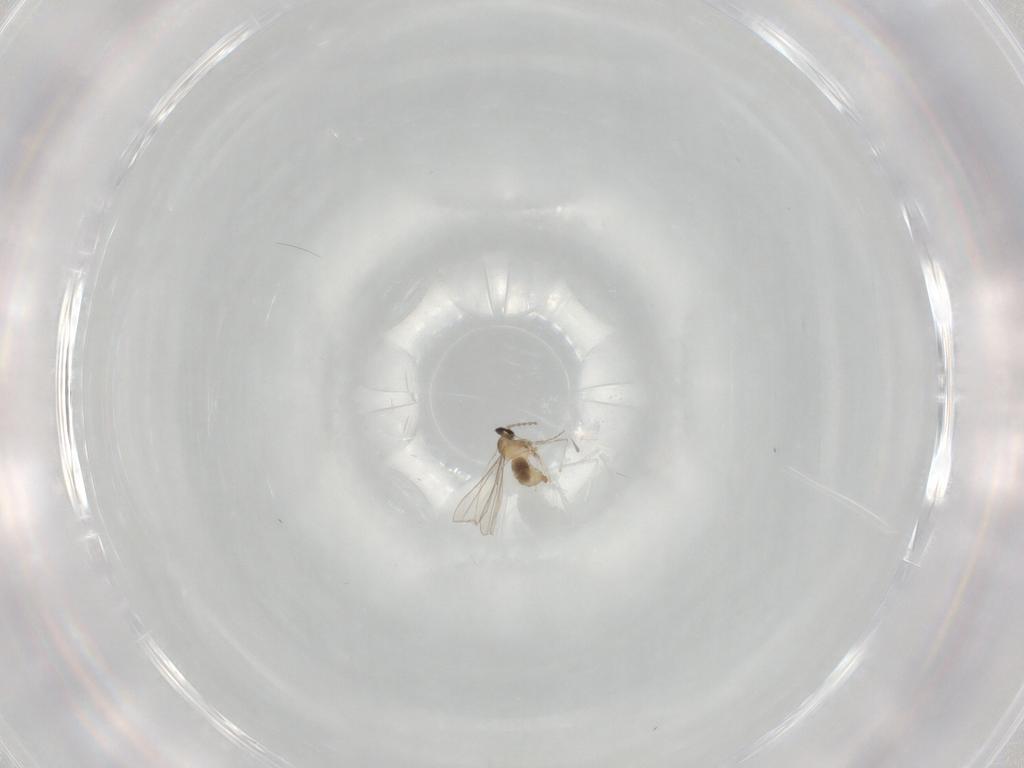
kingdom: Animalia
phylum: Arthropoda
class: Insecta
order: Diptera
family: Cecidomyiidae
